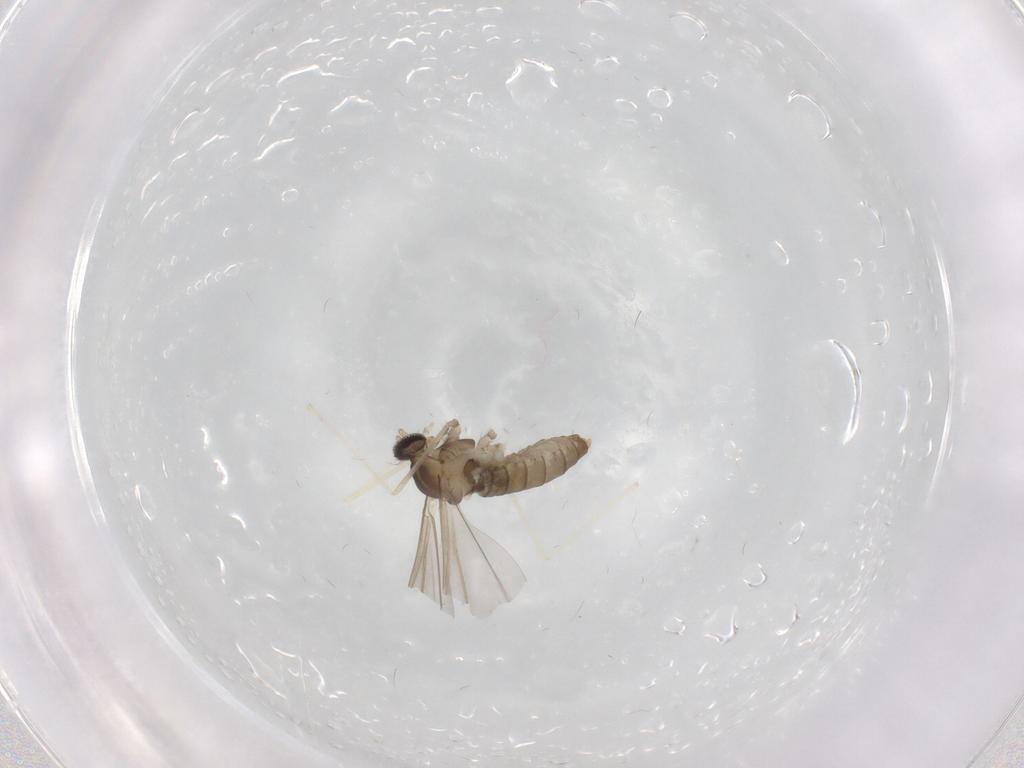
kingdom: Animalia
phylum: Arthropoda
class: Insecta
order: Diptera
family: Cecidomyiidae
